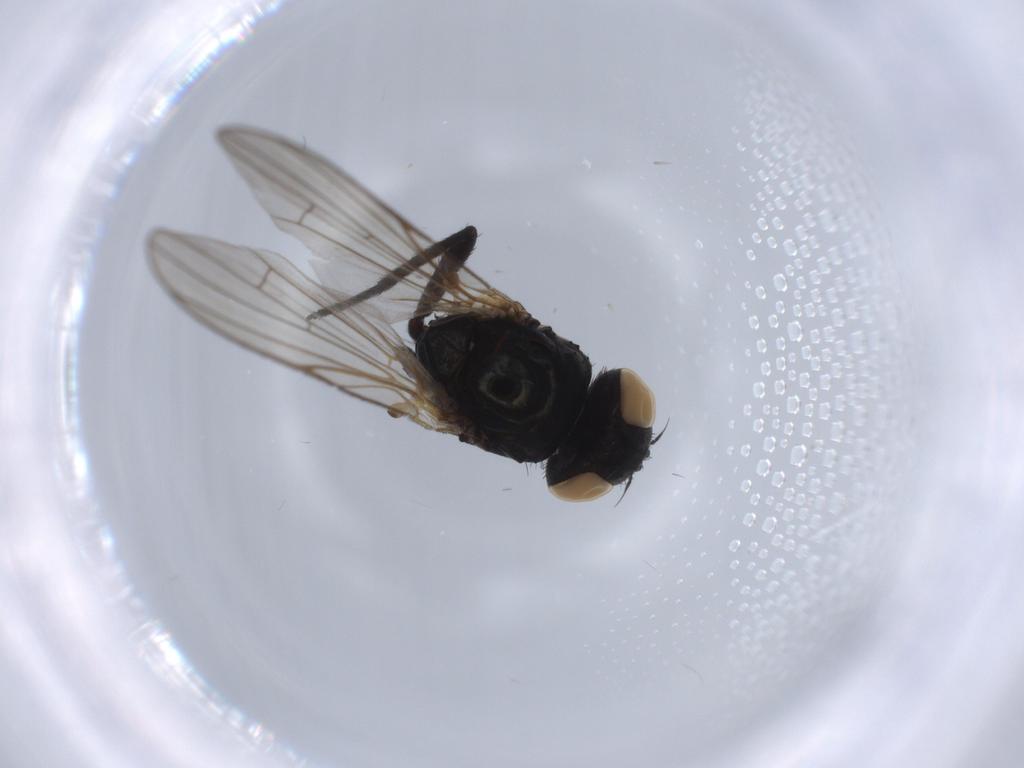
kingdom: Animalia
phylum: Arthropoda
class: Insecta
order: Diptera
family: Fannia
